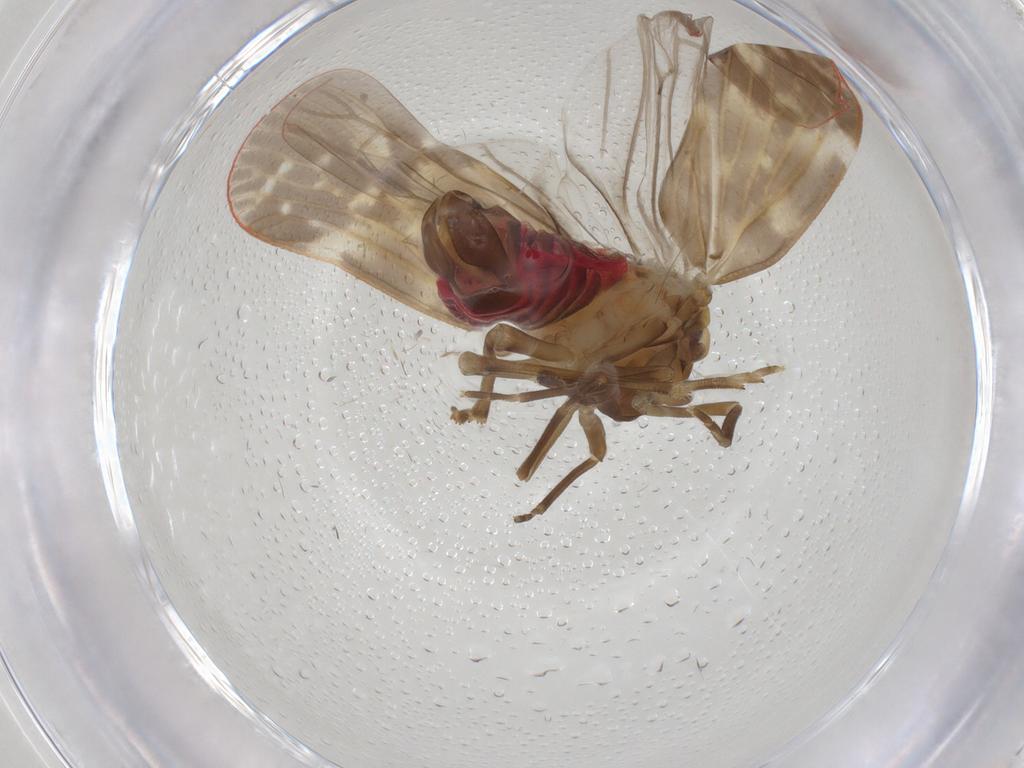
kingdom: Animalia
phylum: Arthropoda
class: Insecta
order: Hemiptera
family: Achilidae
